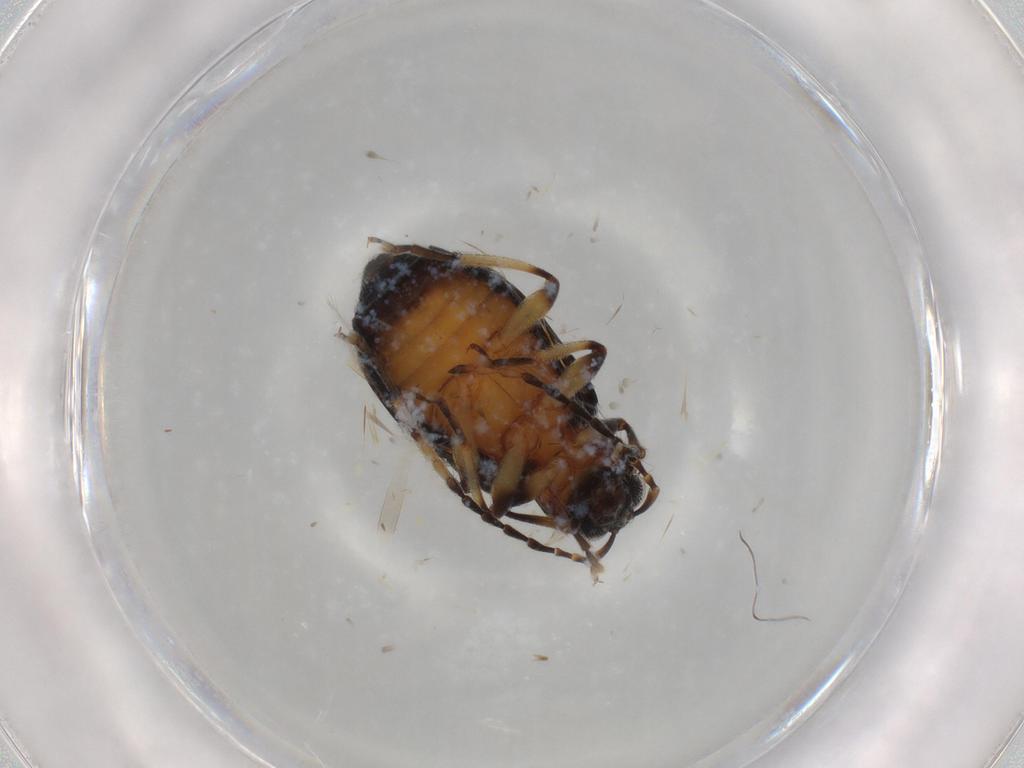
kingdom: Animalia
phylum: Arthropoda
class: Insecta
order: Coleoptera
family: Chrysomelidae
